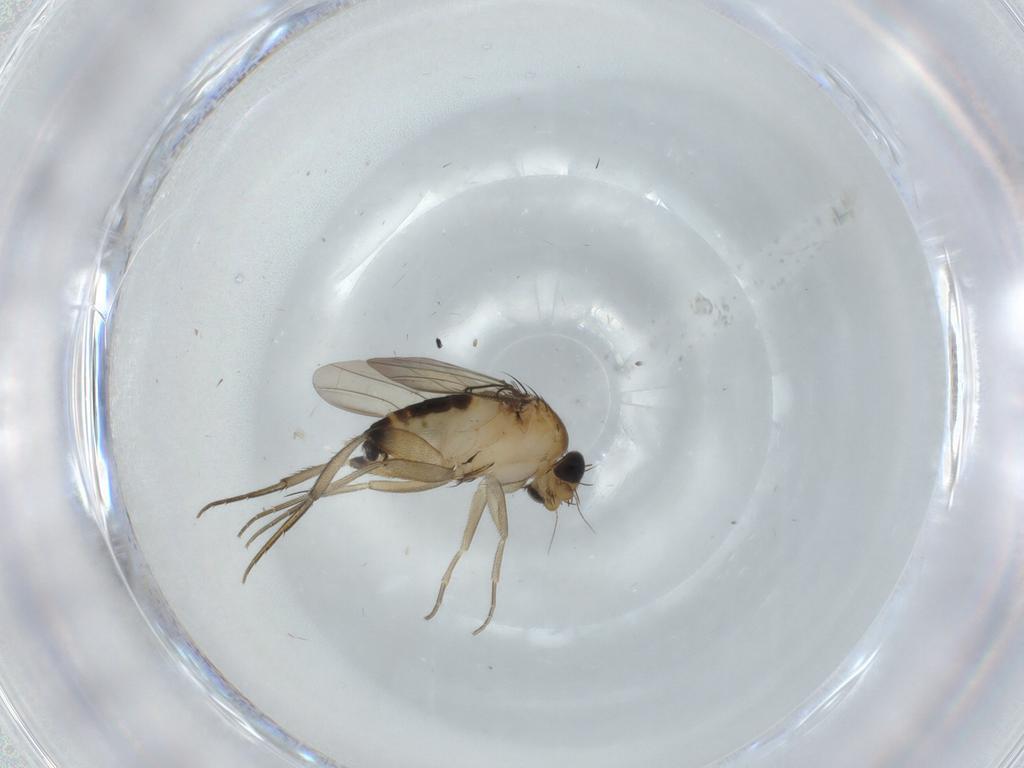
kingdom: Animalia
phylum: Arthropoda
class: Insecta
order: Diptera
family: Phoridae
